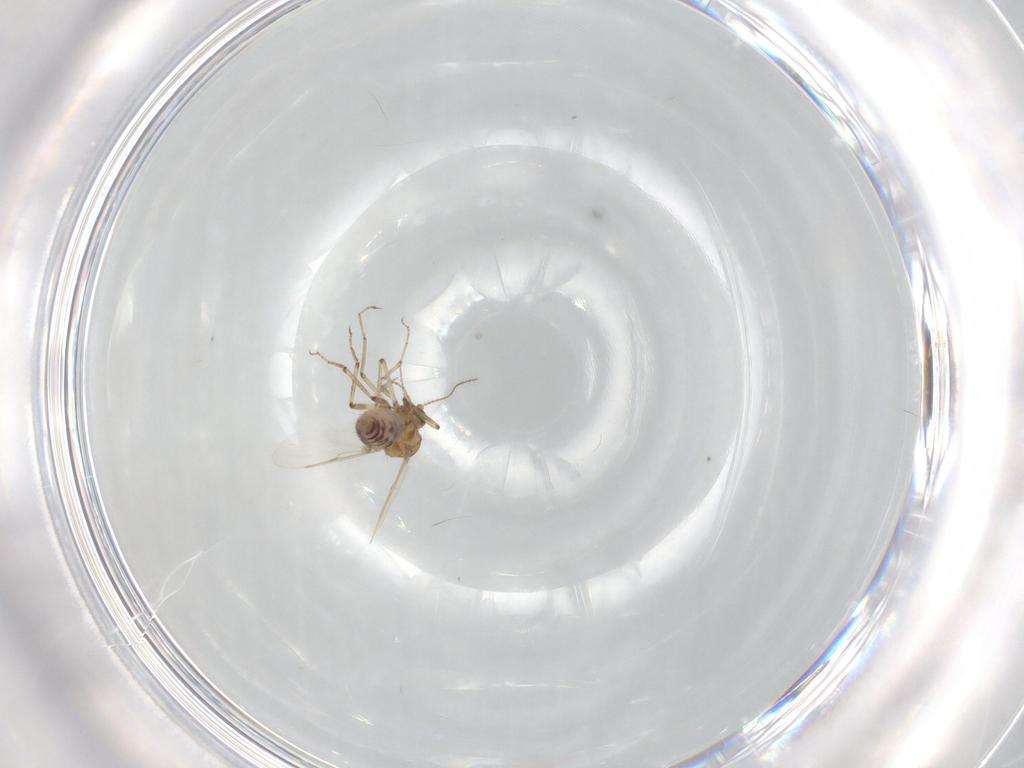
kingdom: Animalia
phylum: Arthropoda
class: Insecta
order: Diptera
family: Ceratopogonidae
